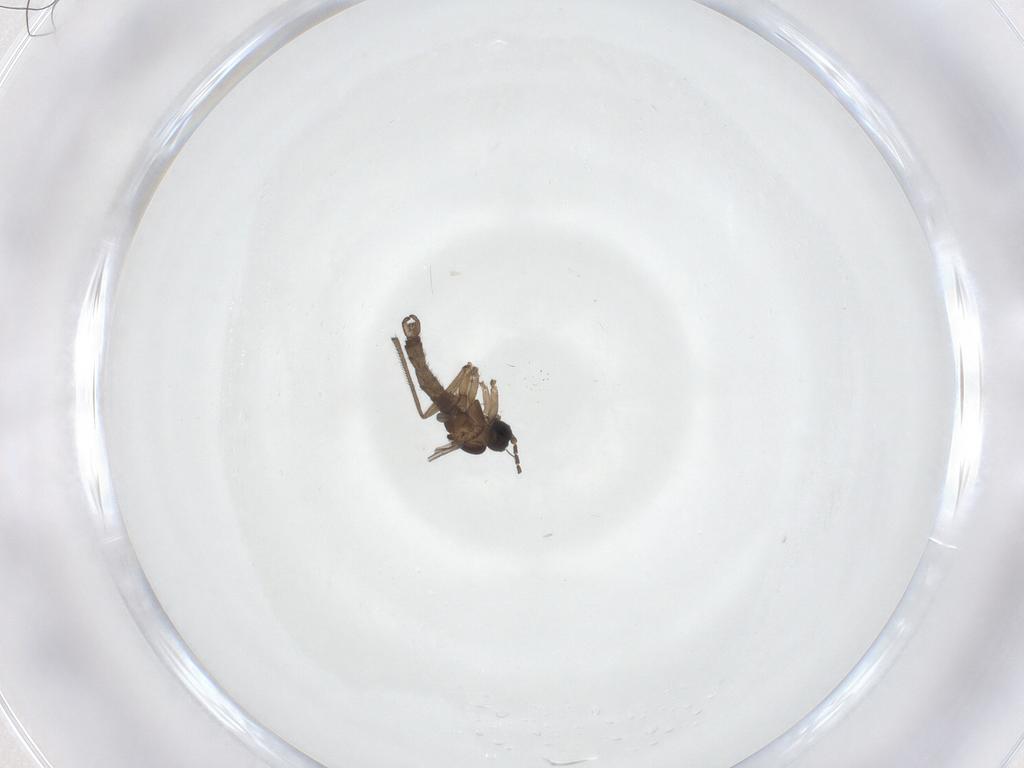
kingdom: Animalia
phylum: Arthropoda
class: Insecta
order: Diptera
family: Sciaridae
